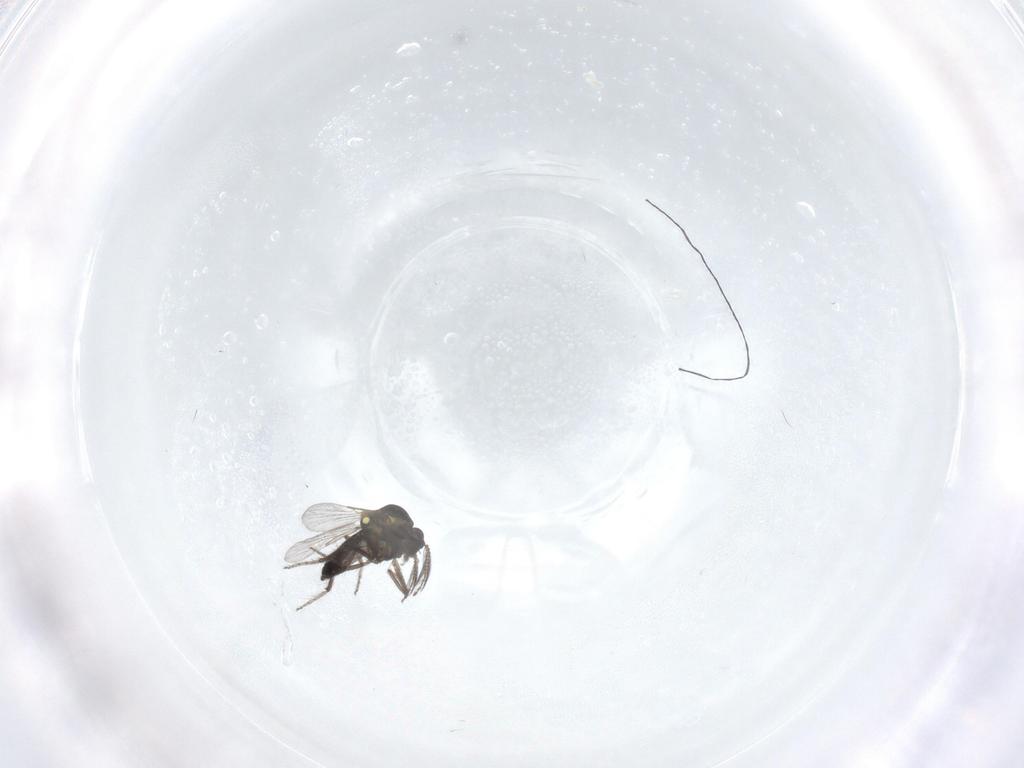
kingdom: Animalia
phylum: Arthropoda
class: Insecta
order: Diptera
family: Ceratopogonidae
